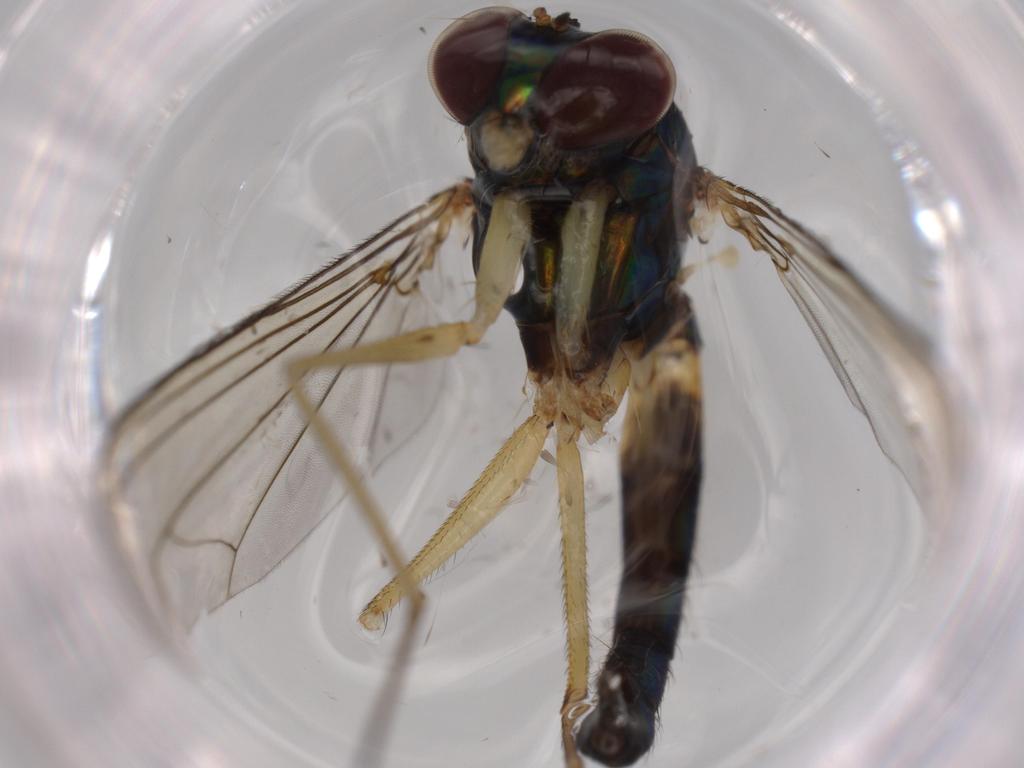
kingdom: Animalia
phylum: Arthropoda
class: Insecta
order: Diptera
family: Dolichopodidae
